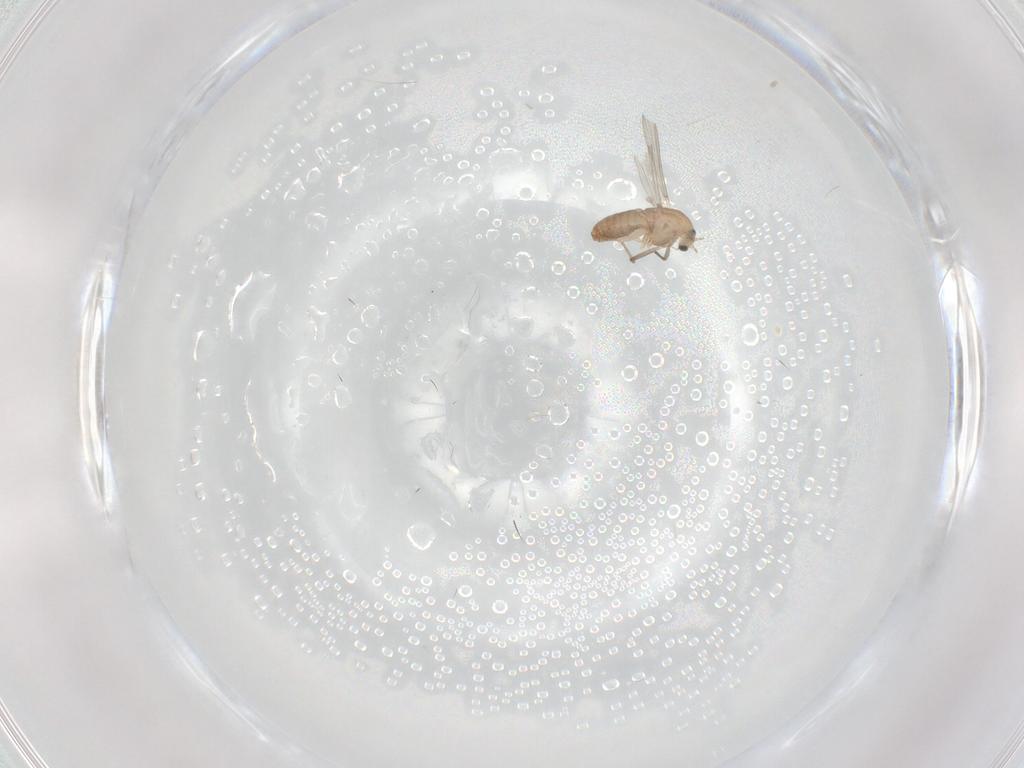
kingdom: Animalia
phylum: Arthropoda
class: Insecta
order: Diptera
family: Chironomidae
